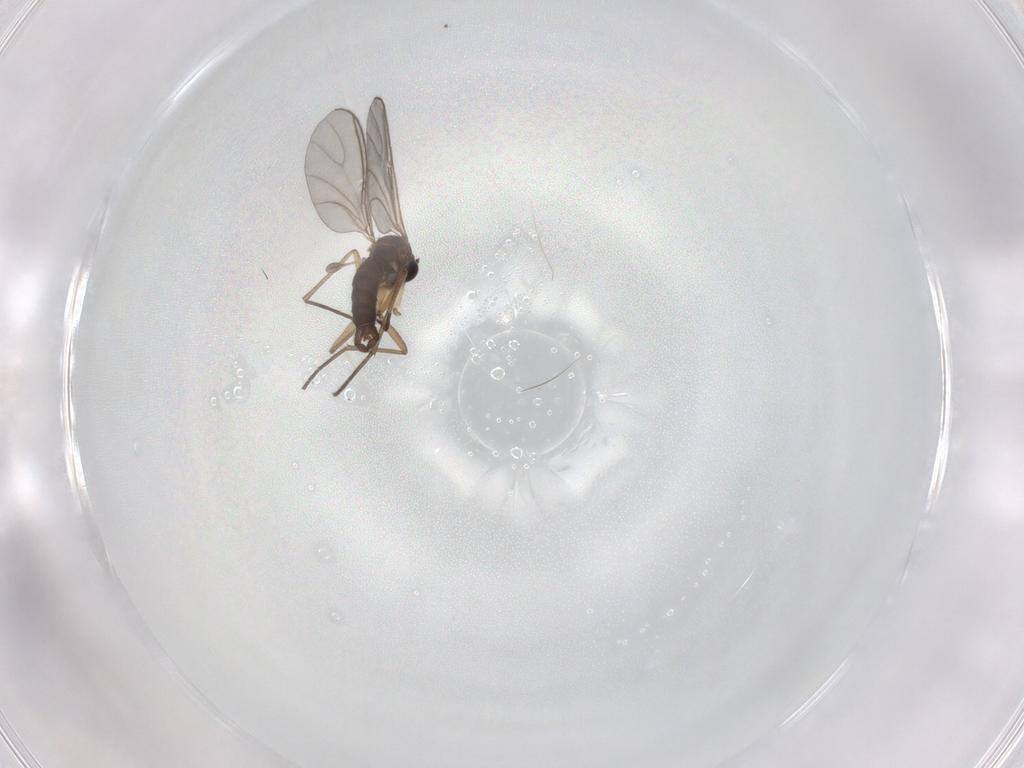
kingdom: Animalia
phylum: Arthropoda
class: Insecta
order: Diptera
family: Sciaridae
